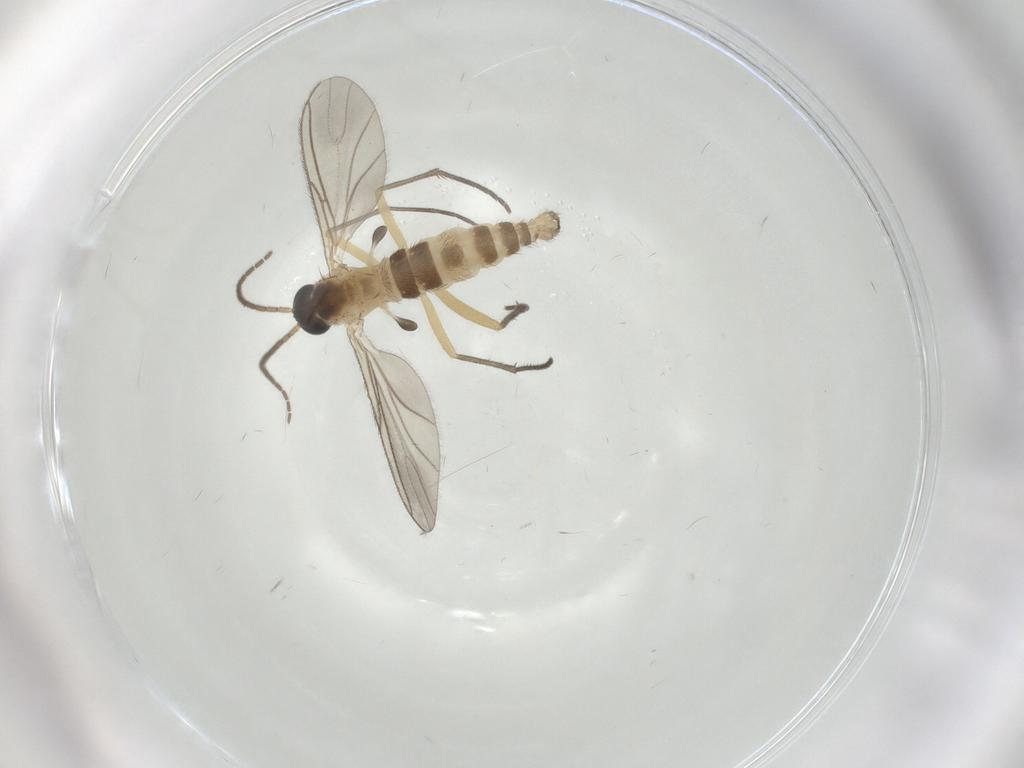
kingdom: Animalia
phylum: Arthropoda
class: Insecta
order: Diptera
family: Sciaridae
